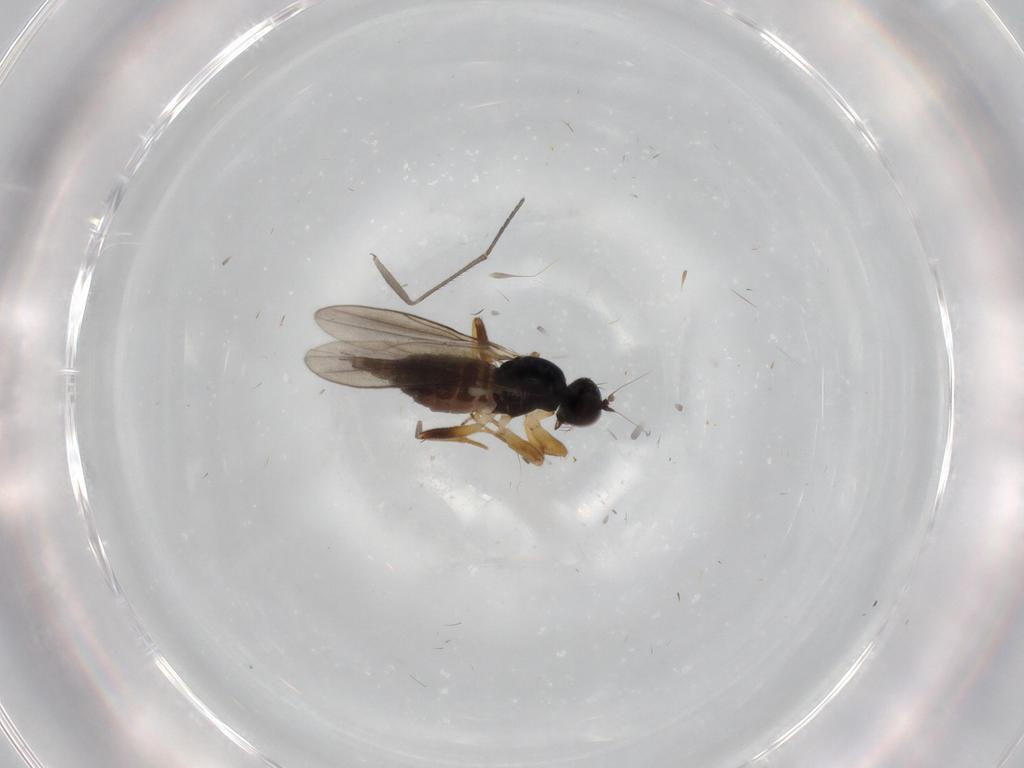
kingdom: Animalia
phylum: Arthropoda
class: Insecta
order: Diptera
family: Hybotidae
